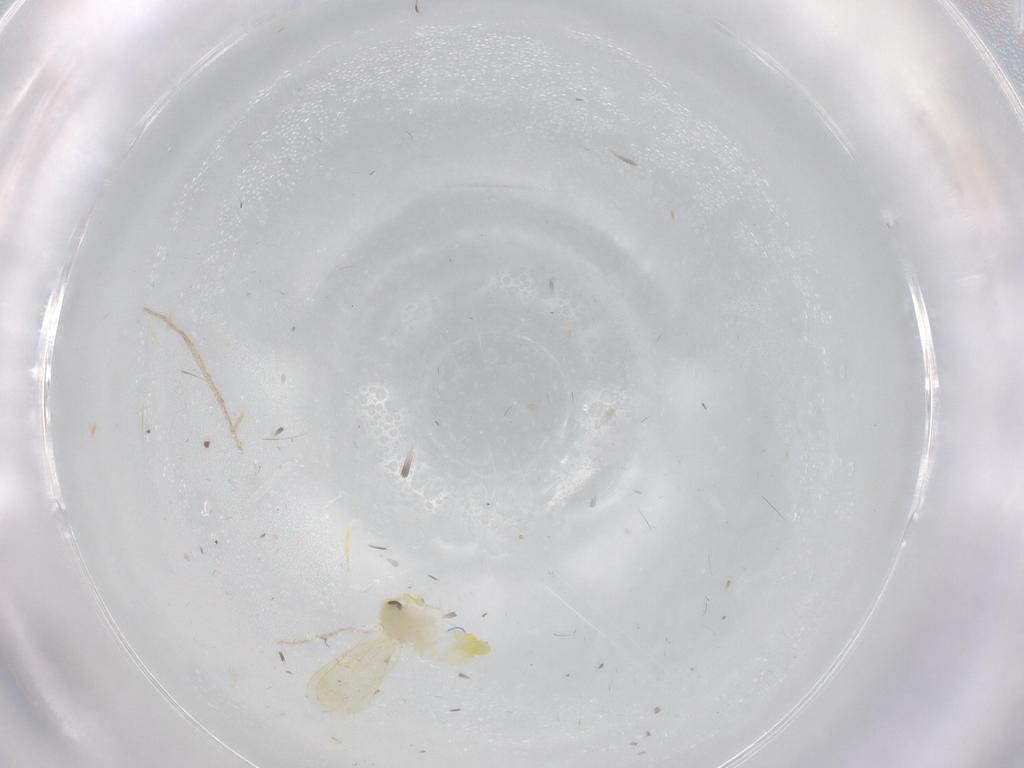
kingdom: Animalia
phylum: Arthropoda
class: Insecta
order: Hemiptera
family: Aleyrodidae
